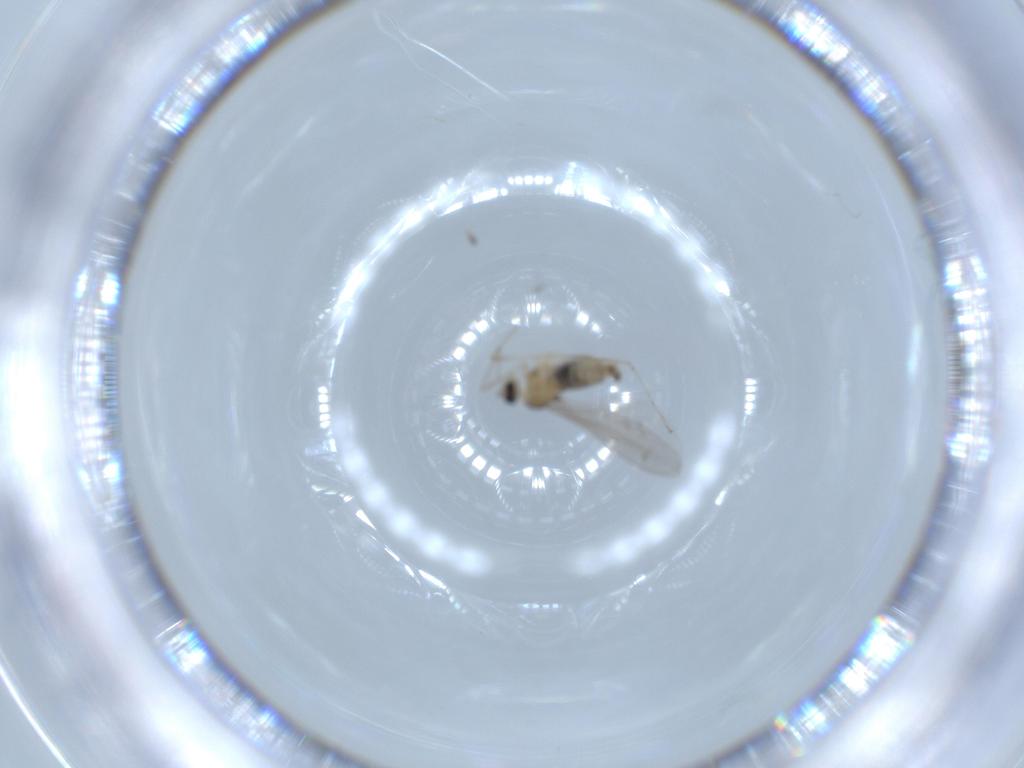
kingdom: Animalia
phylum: Arthropoda
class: Insecta
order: Diptera
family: Cecidomyiidae
